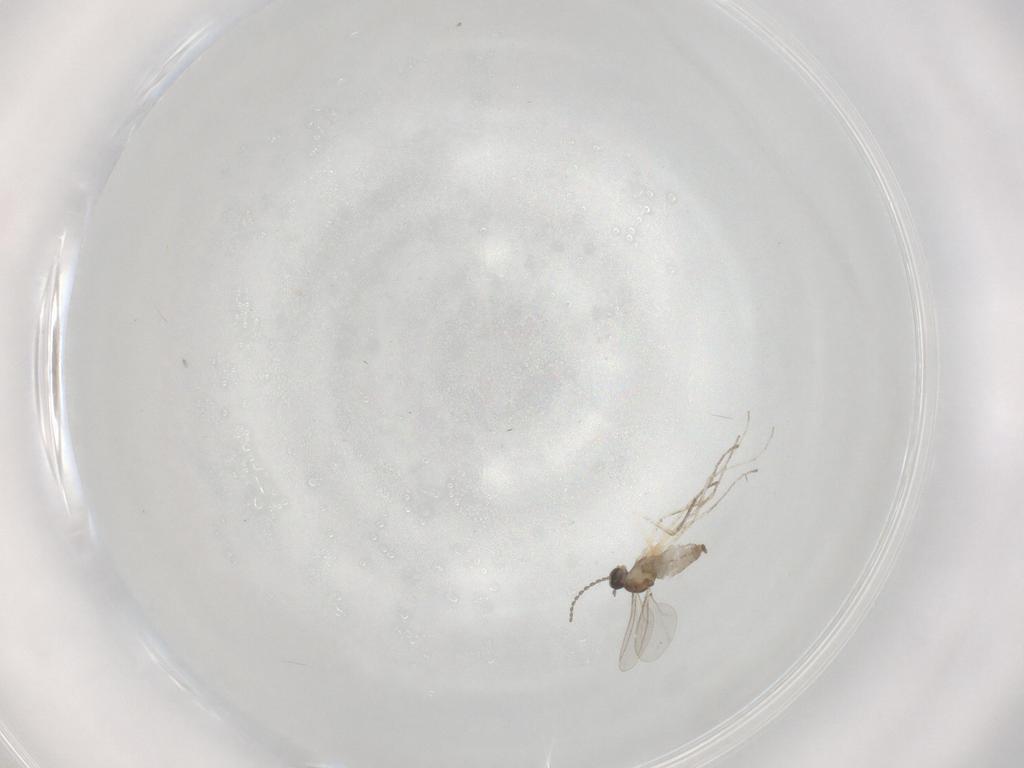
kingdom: Animalia
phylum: Arthropoda
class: Insecta
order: Diptera
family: Cecidomyiidae
